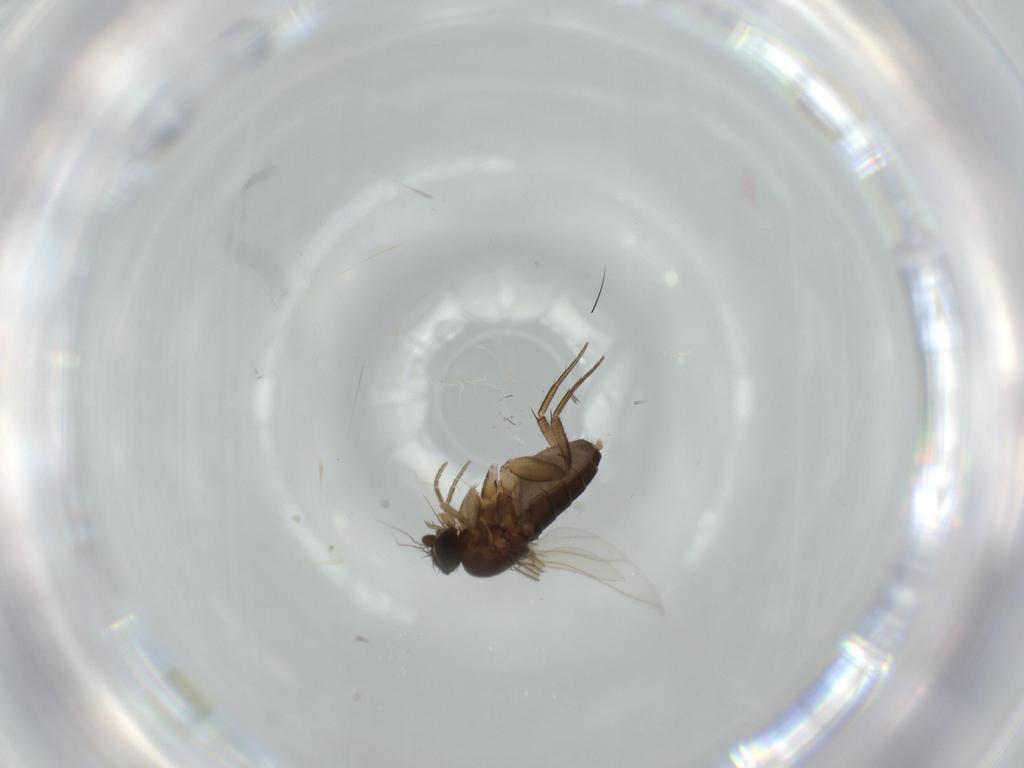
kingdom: Animalia
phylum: Arthropoda
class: Insecta
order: Diptera
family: Phoridae
